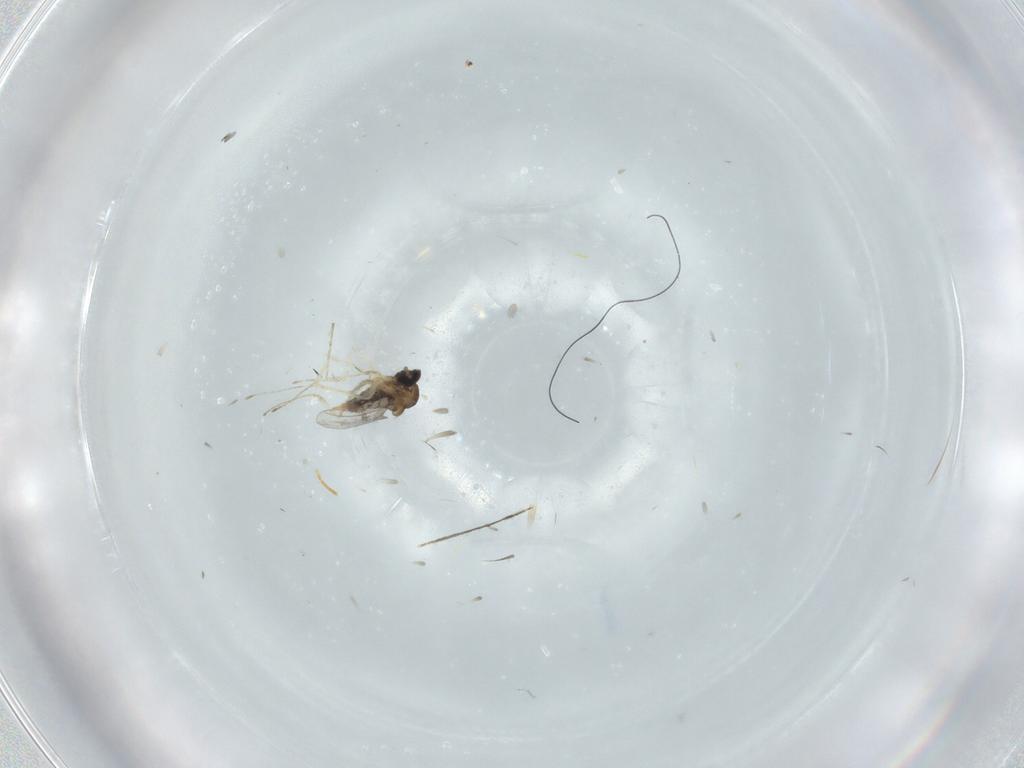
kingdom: Animalia
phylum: Arthropoda
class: Insecta
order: Diptera
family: Cecidomyiidae
